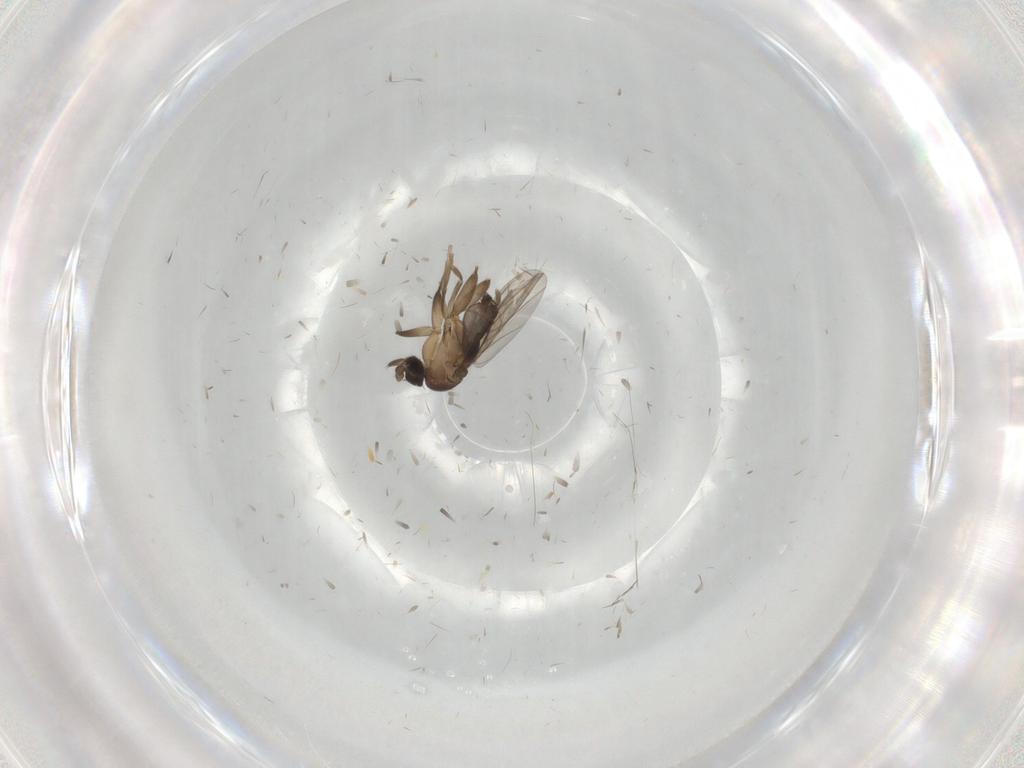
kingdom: Animalia
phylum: Arthropoda
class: Insecta
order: Diptera
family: Phoridae
